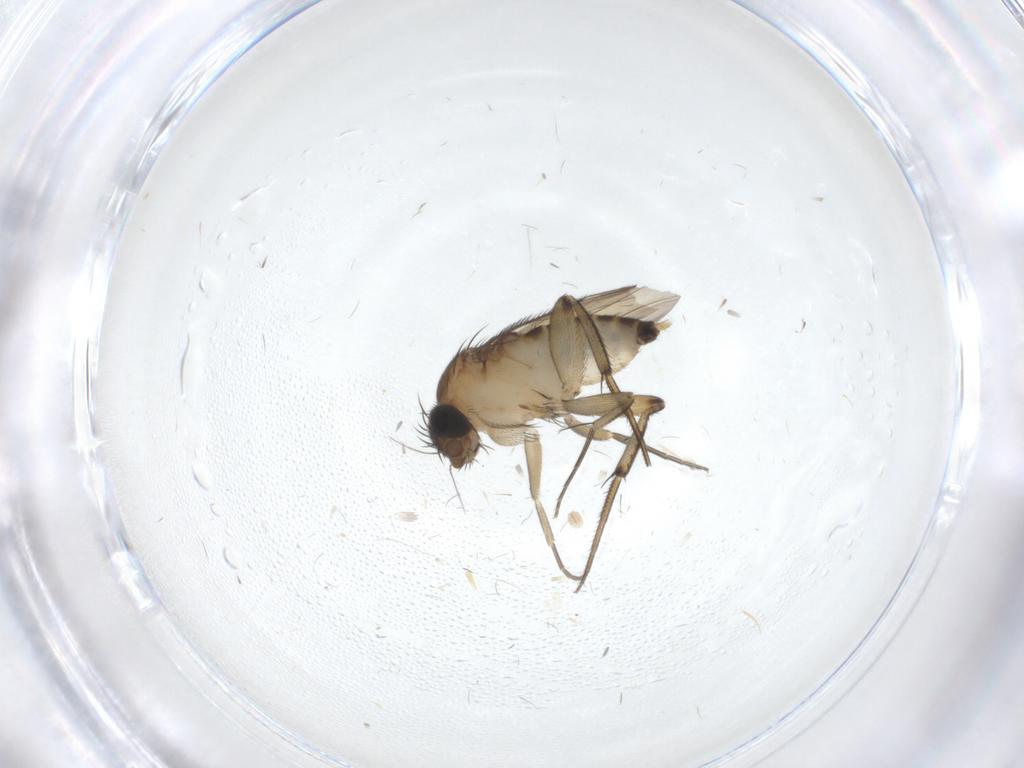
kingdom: Animalia
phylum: Arthropoda
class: Insecta
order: Diptera
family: Phoridae
